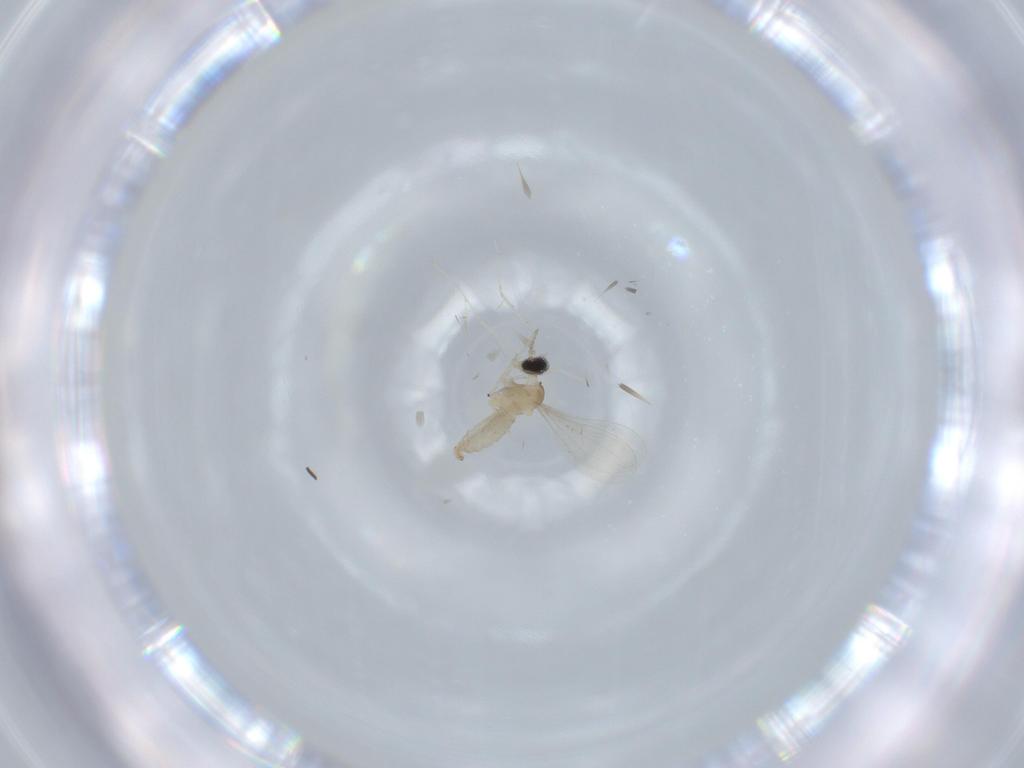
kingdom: Animalia
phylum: Arthropoda
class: Insecta
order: Diptera
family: Cecidomyiidae
